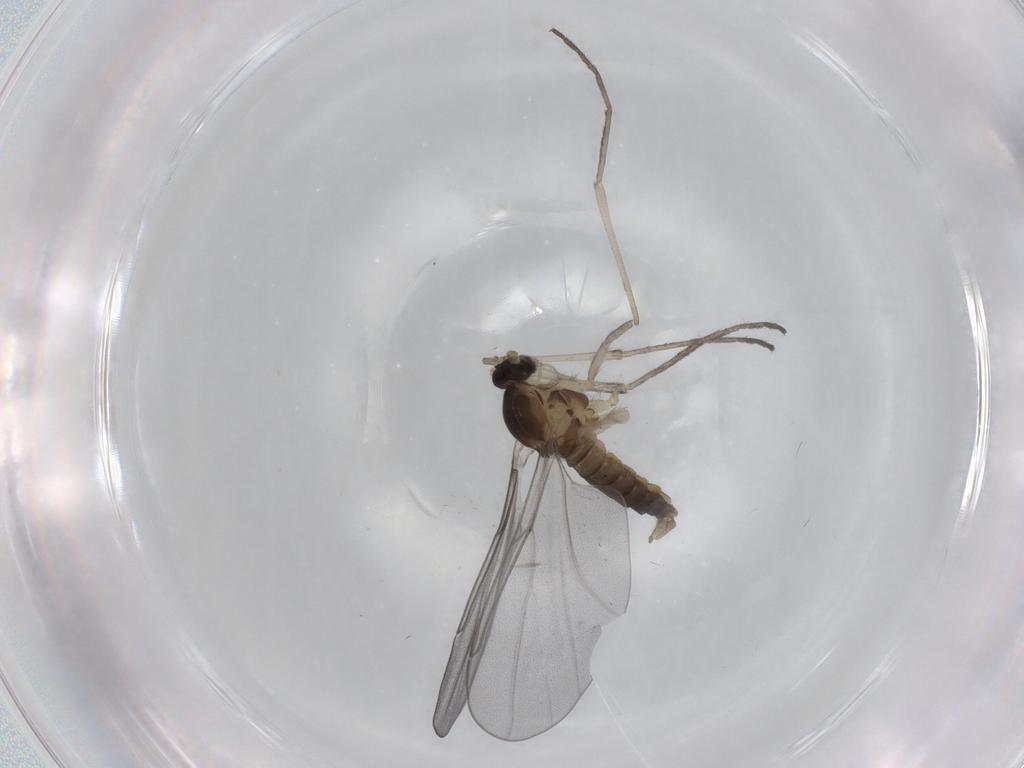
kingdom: Animalia
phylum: Arthropoda
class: Insecta
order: Diptera
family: Cecidomyiidae
